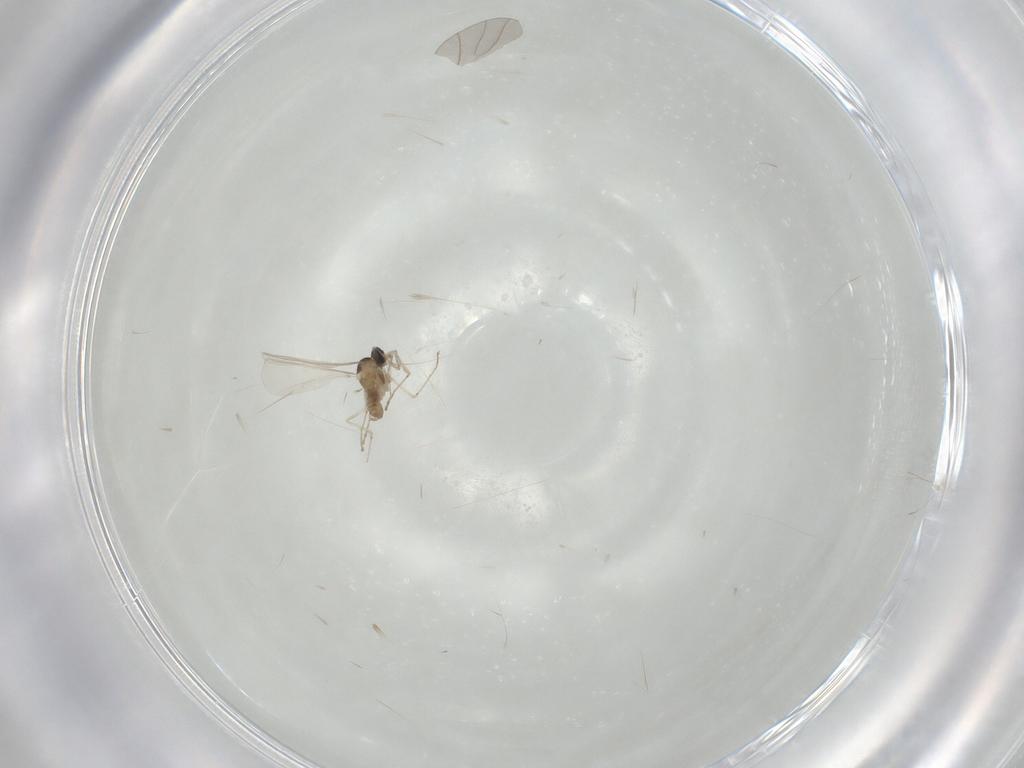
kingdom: Animalia
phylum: Arthropoda
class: Insecta
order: Diptera
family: Cecidomyiidae
